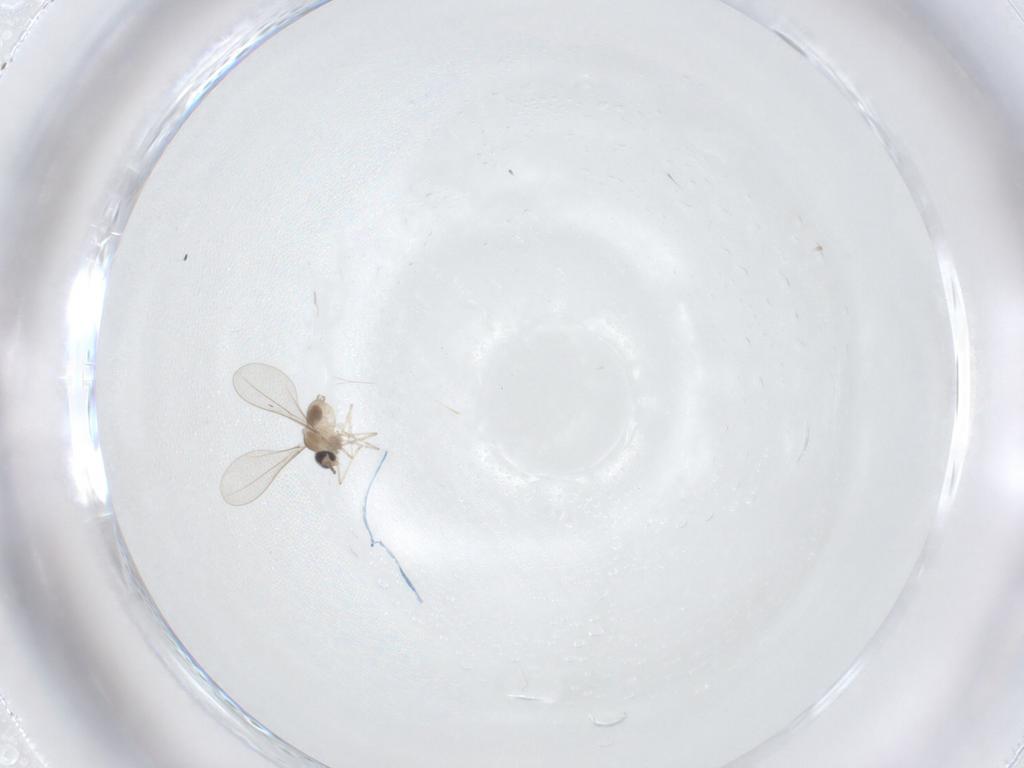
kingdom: Animalia
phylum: Arthropoda
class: Insecta
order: Diptera
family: Cecidomyiidae
